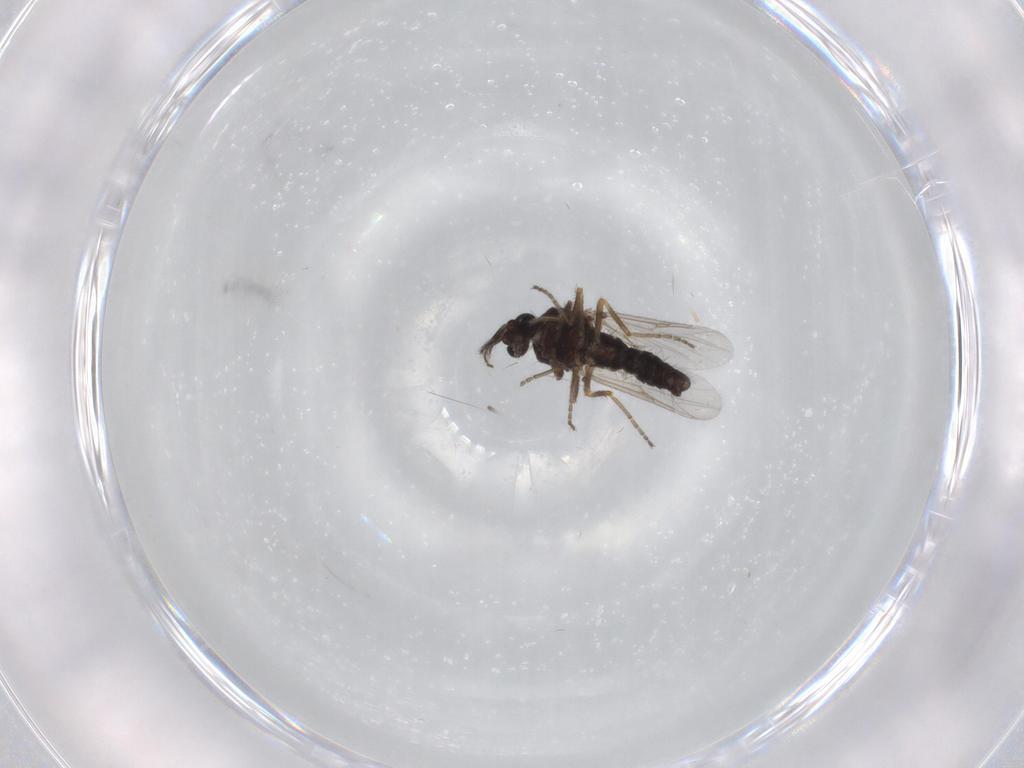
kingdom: Animalia
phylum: Arthropoda
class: Insecta
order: Diptera
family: Ceratopogonidae
